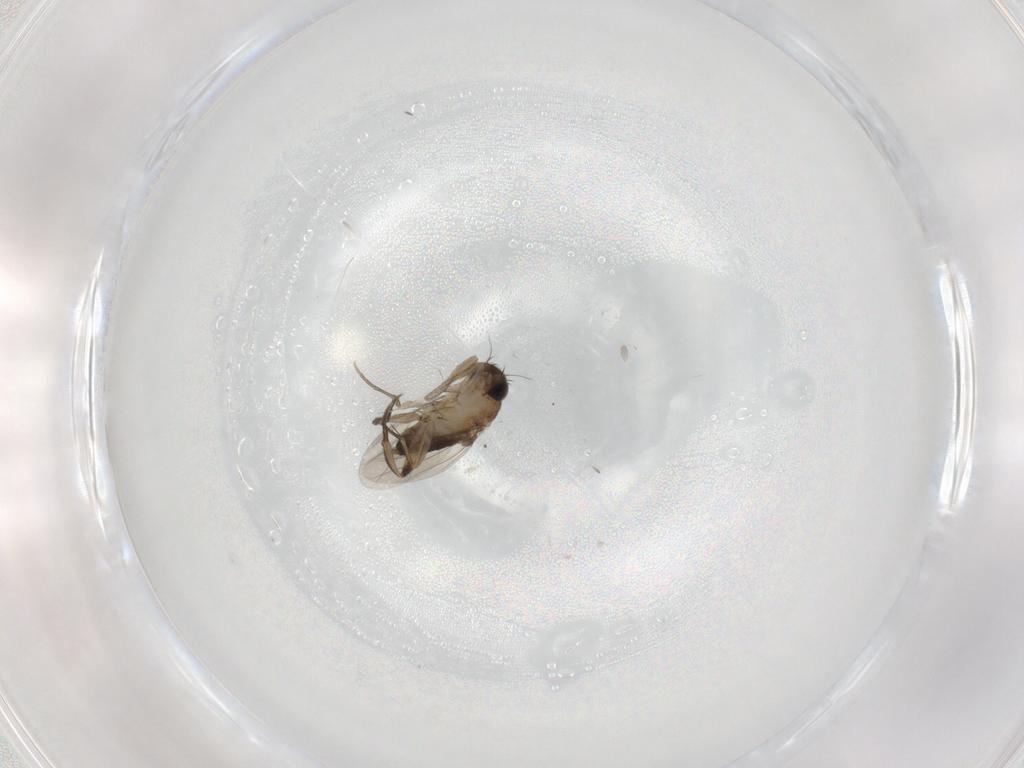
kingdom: Animalia
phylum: Arthropoda
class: Insecta
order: Diptera
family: Phoridae
